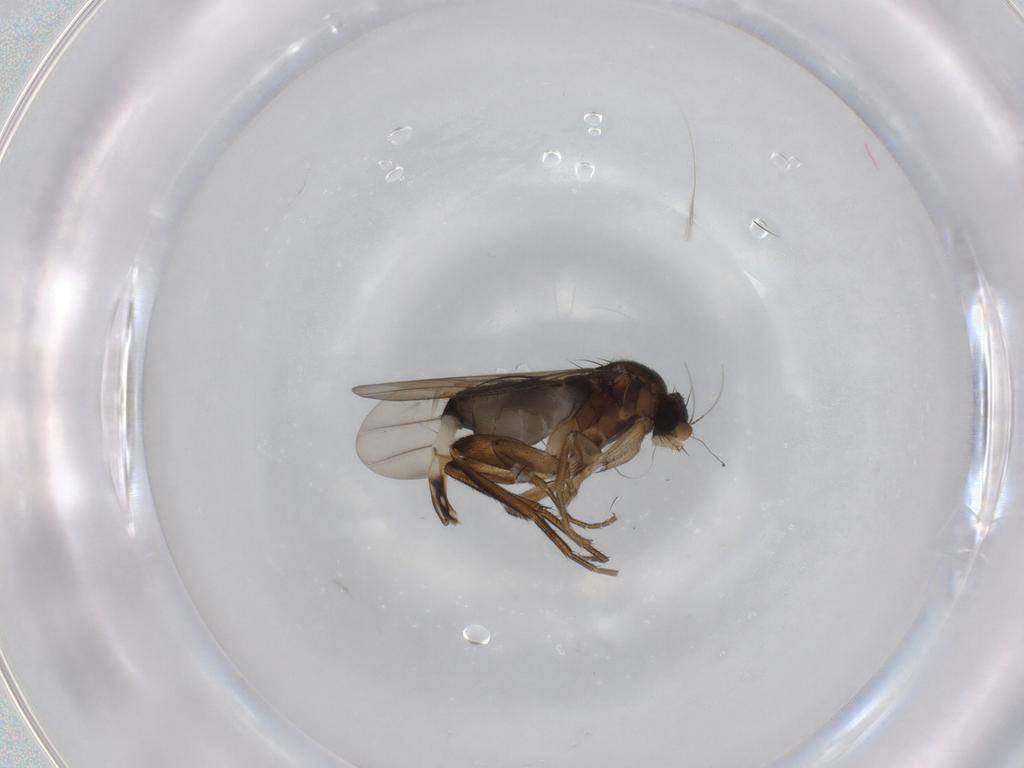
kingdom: Animalia
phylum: Arthropoda
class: Insecta
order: Diptera
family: Phoridae
